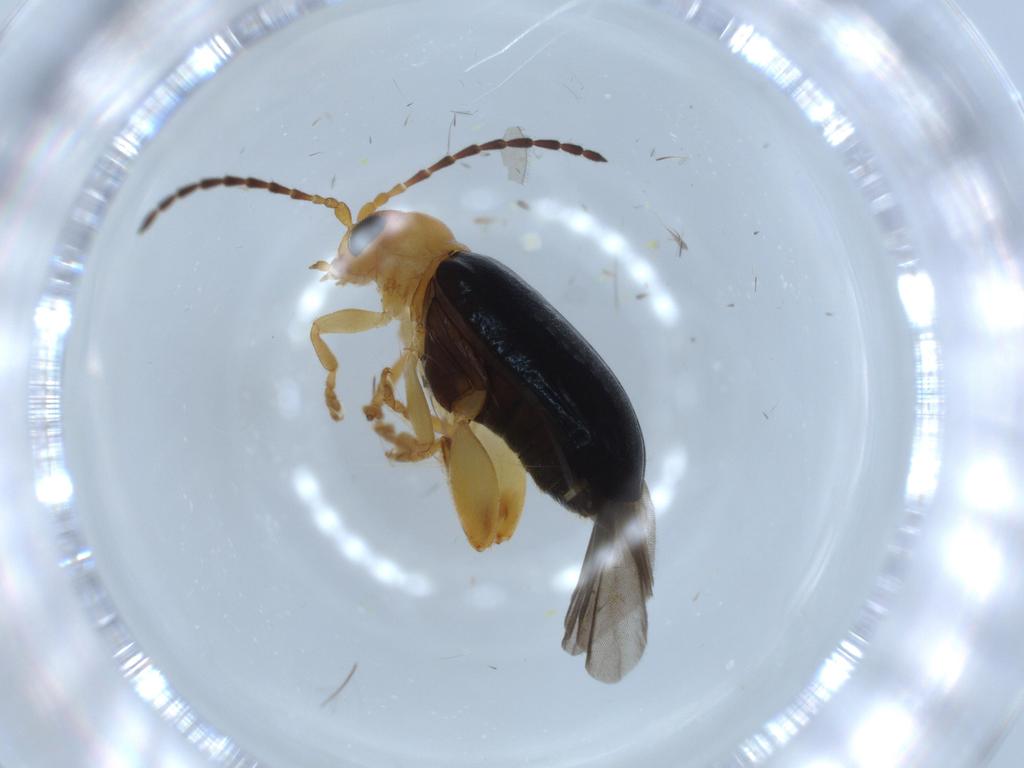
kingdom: Animalia
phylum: Arthropoda
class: Insecta
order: Coleoptera
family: Chrysomelidae
